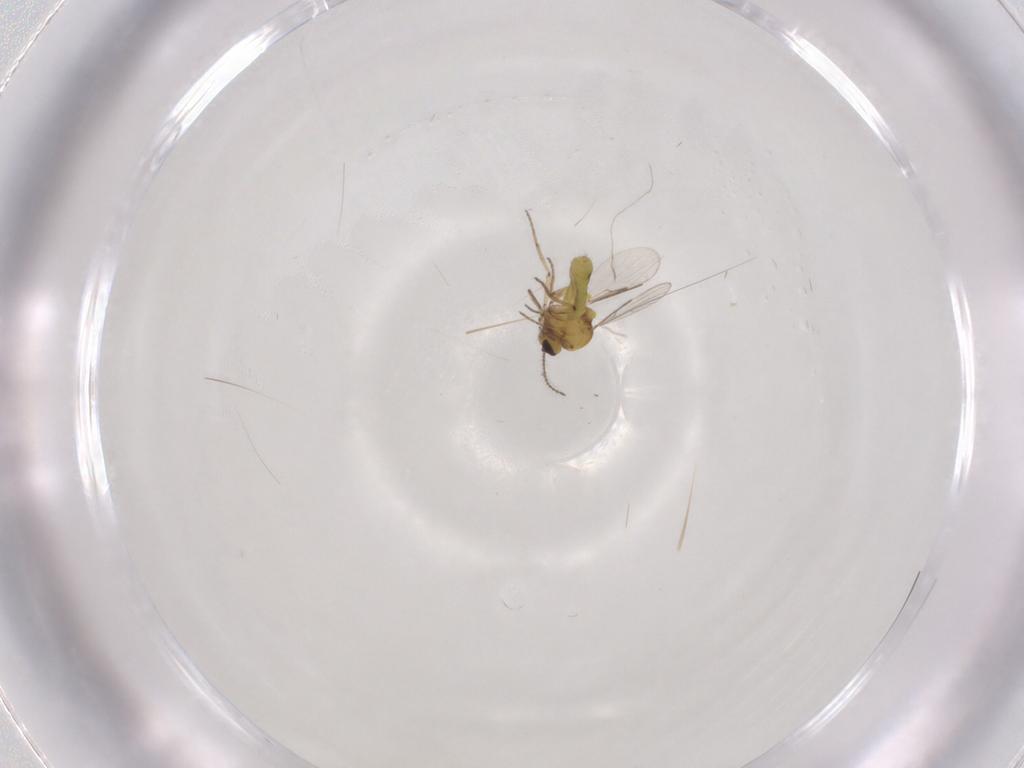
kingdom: Animalia
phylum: Arthropoda
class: Insecta
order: Diptera
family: Ceratopogonidae
